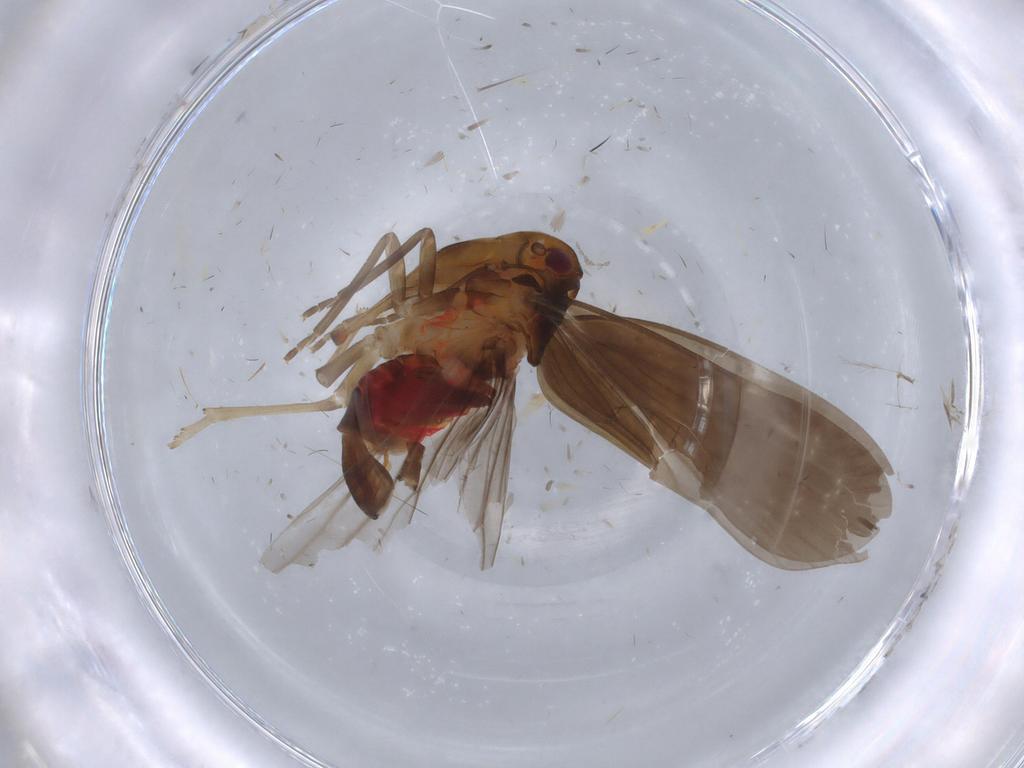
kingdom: Animalia
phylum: Arthropoda
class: Insecta
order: Hemiptera
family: Derbidae
